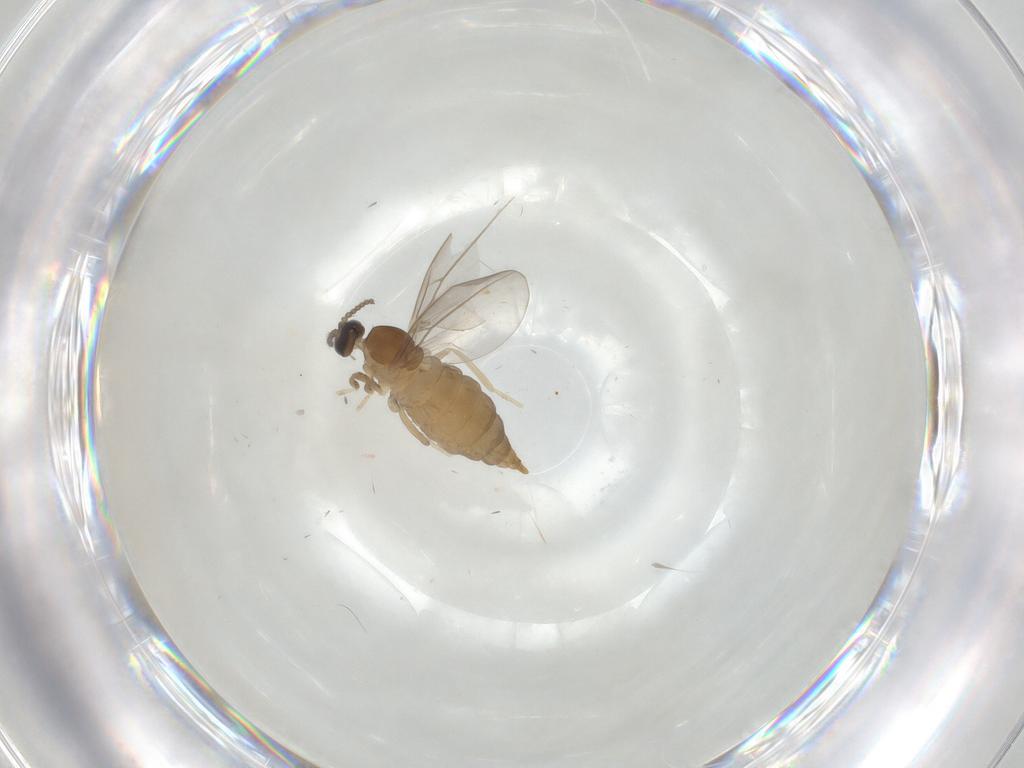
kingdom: Animalia
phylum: Arthropoda
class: Insecta
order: Diptera
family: Cecidomyiidae
